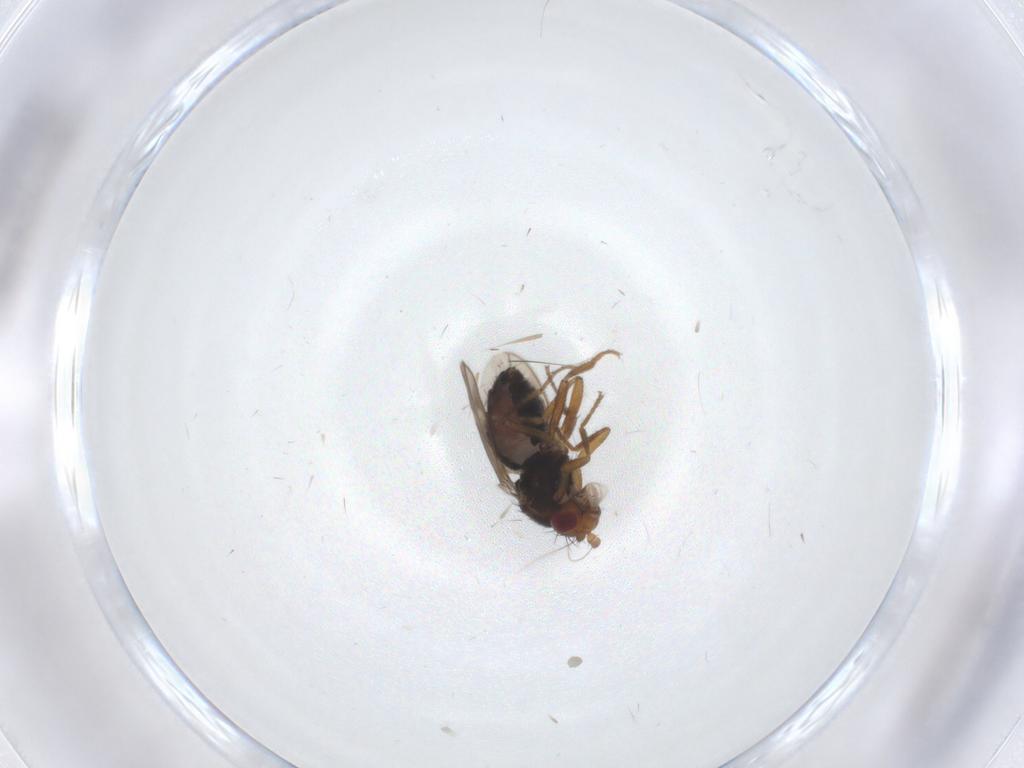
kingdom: Animalia
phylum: Arthropoda
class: Insecta
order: Diptera
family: Sphaeroceridae
